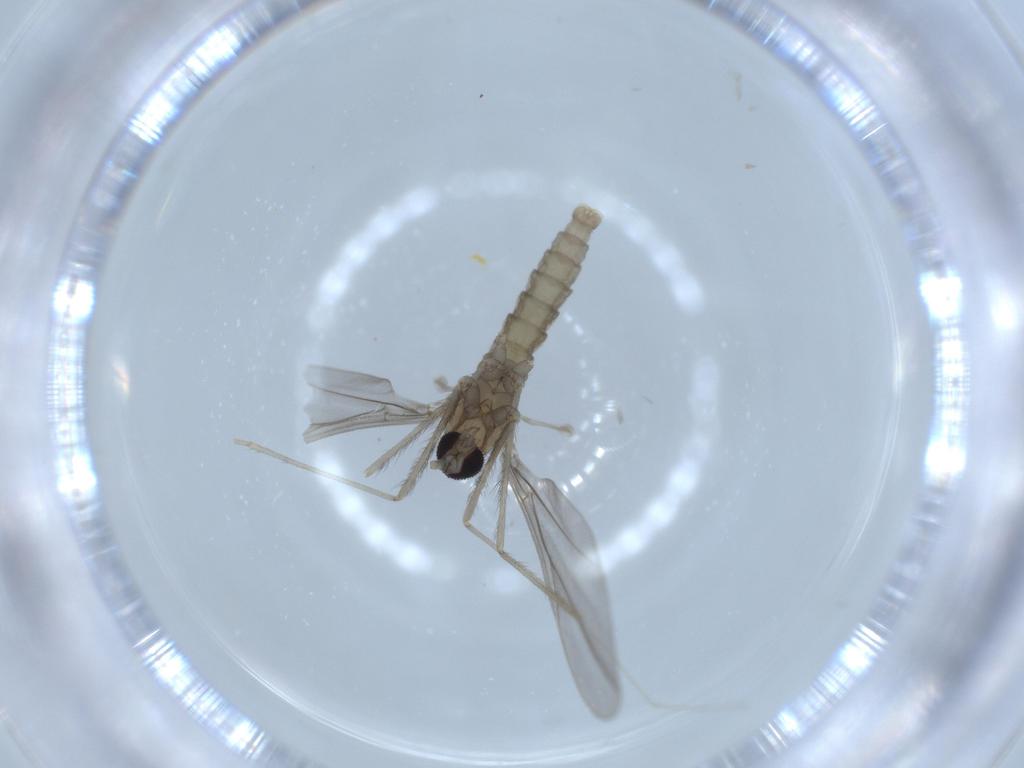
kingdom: Animalia
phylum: Arthropoda
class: Insecta
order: Diptera
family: Cecidomyiidae
